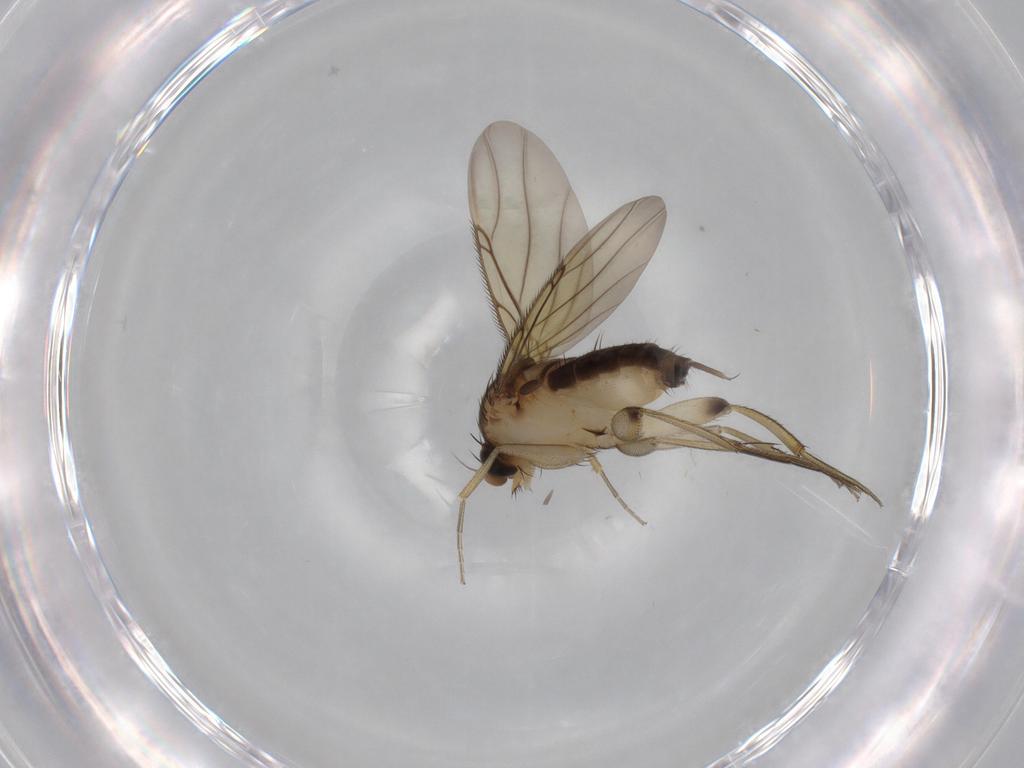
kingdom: Animalia
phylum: Arthropoda
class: Insecta
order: Diptera
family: Phoridae
